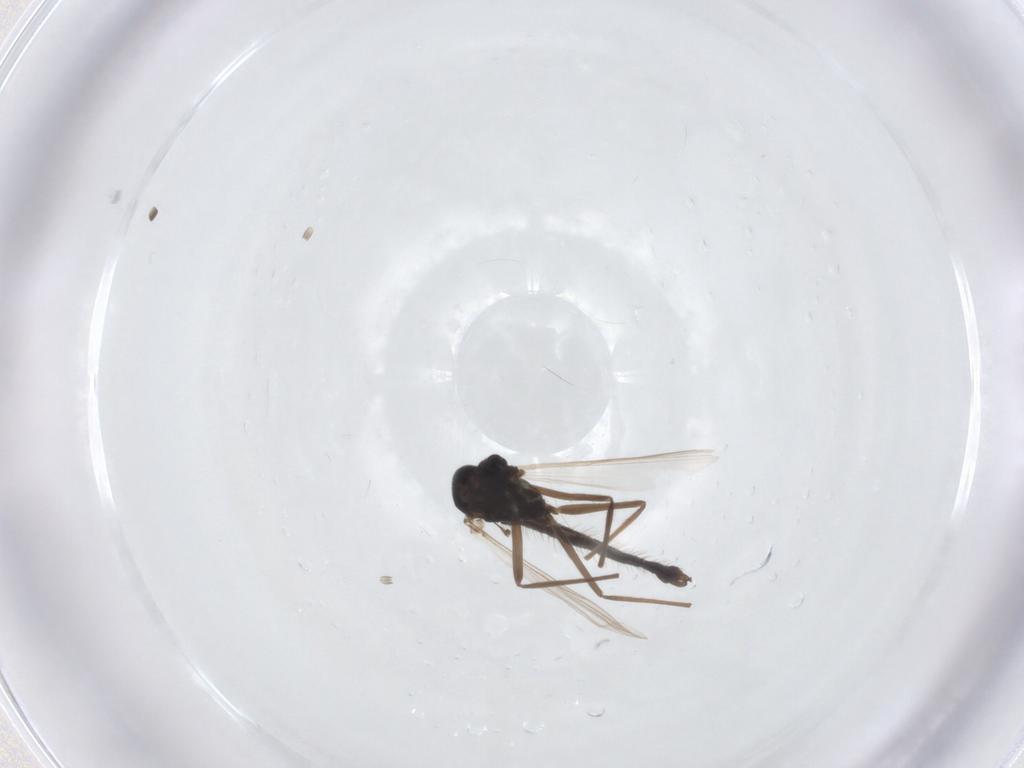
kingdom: Animalia
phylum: Arthropoda
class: Insecta
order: Diptera
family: Chironomidae
